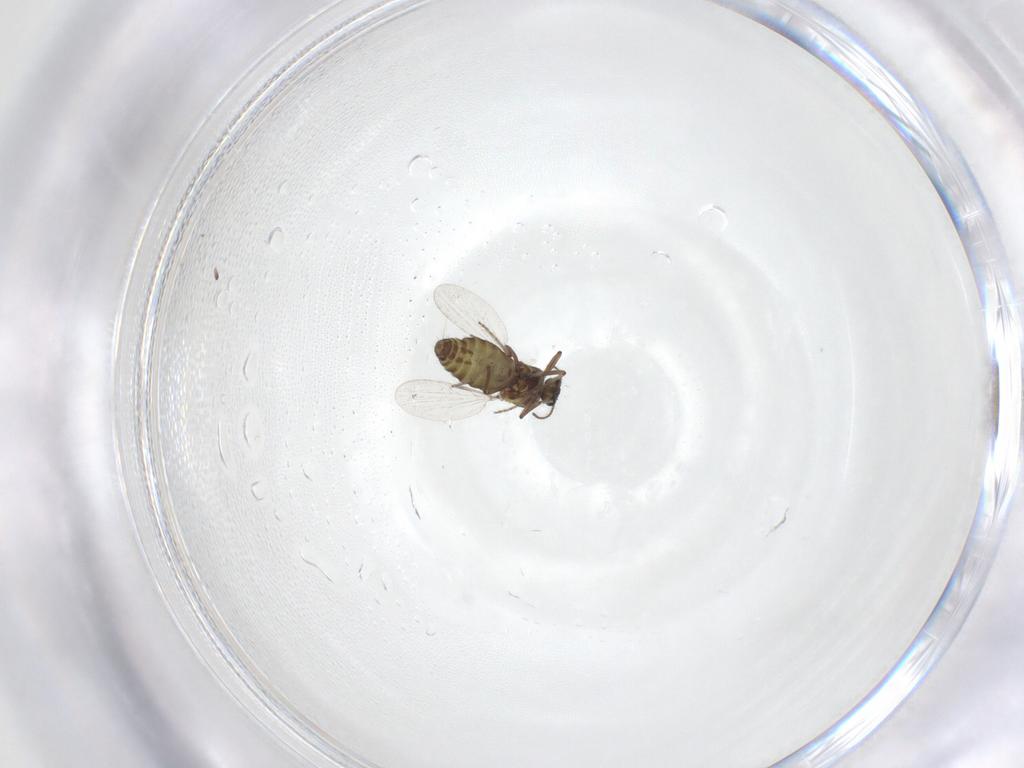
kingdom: Animalia
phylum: Arthropoda
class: Insecta
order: Diptera
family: Ceratopogonidae
